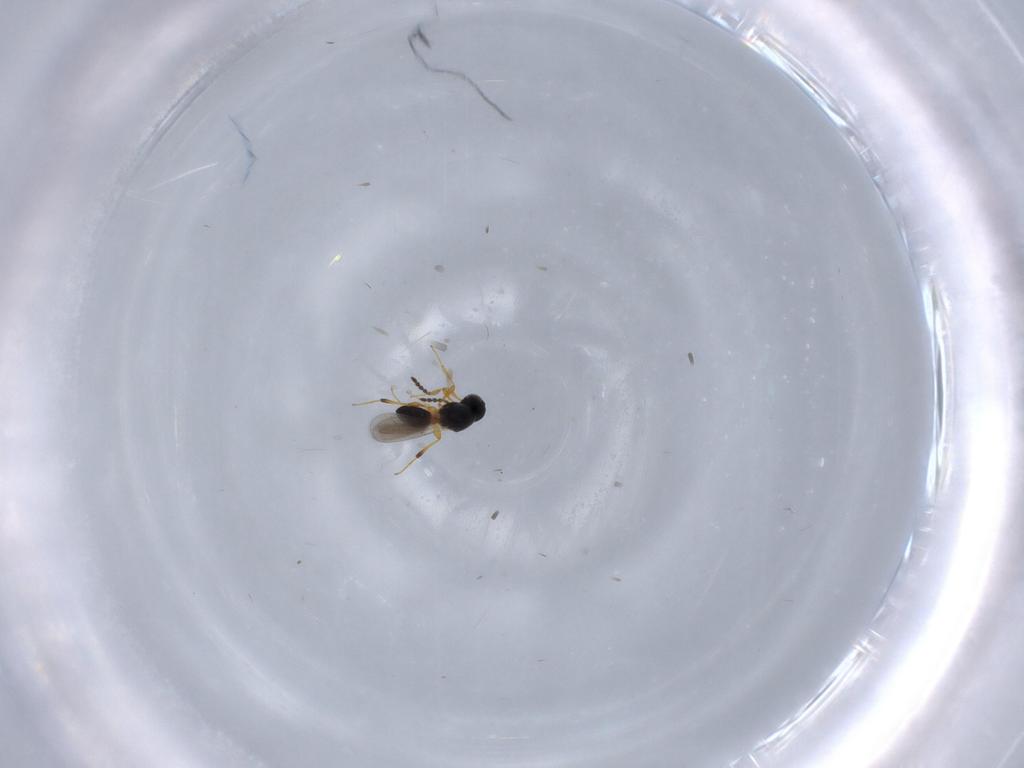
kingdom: Animalia
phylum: Arthropoda
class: Insecta
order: Hymenoptera
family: Platygastridae
